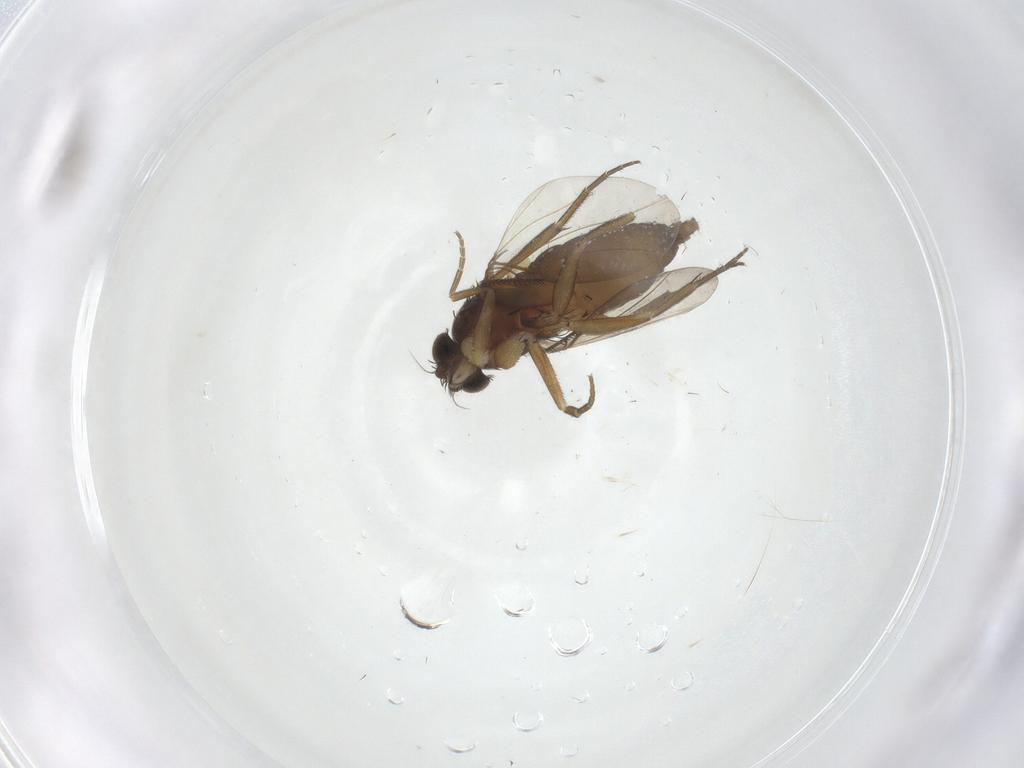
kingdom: Animalia
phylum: Arthropoda
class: Insecta
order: Diptera
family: Phoridae
